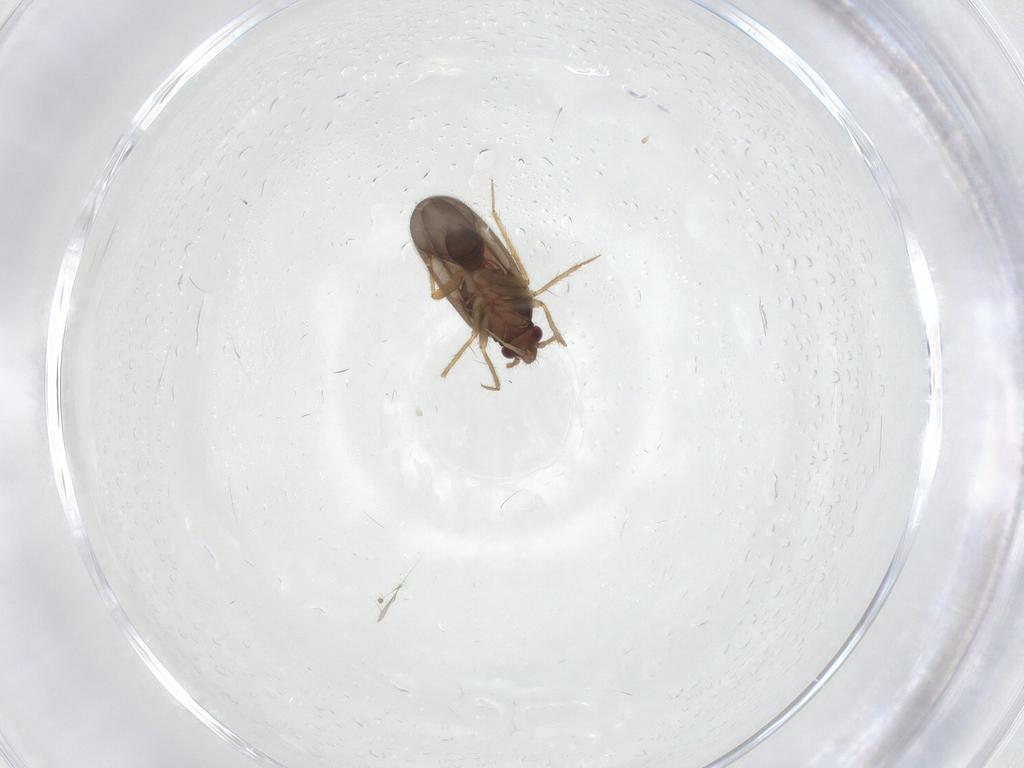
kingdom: Animalia
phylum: Arthropoda
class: Insecta
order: Hemiptera
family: Ceratocombidae
